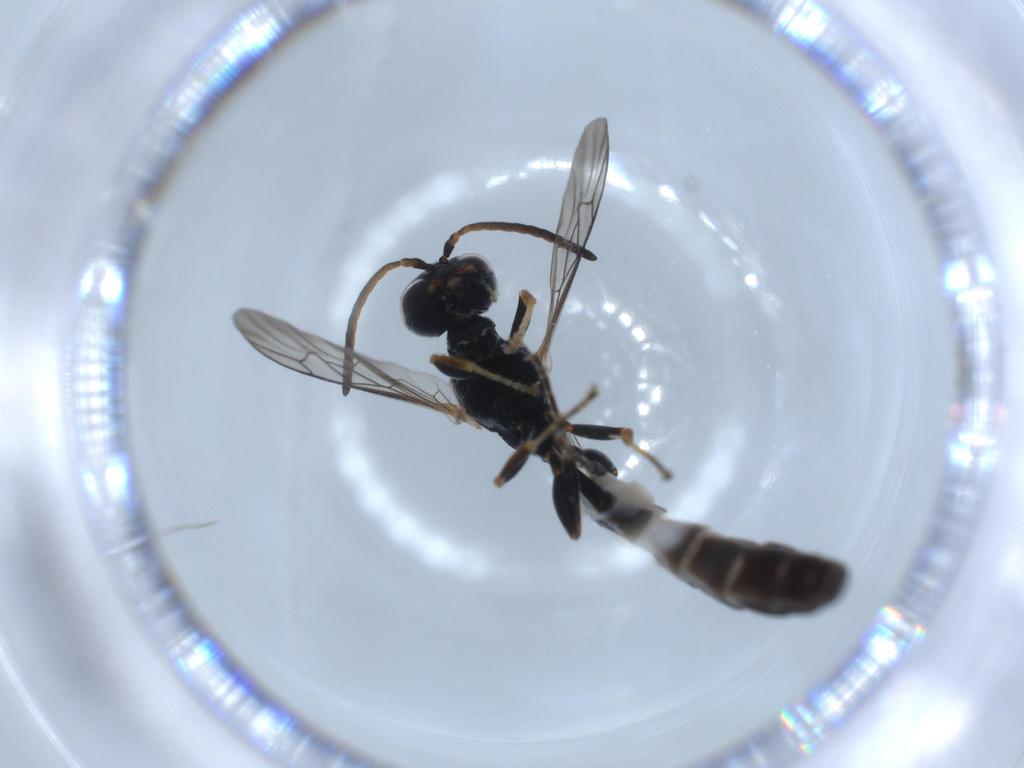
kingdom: Animalia
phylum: Arthropoda
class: Insecta
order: Hymenoptera
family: Crabronidae
